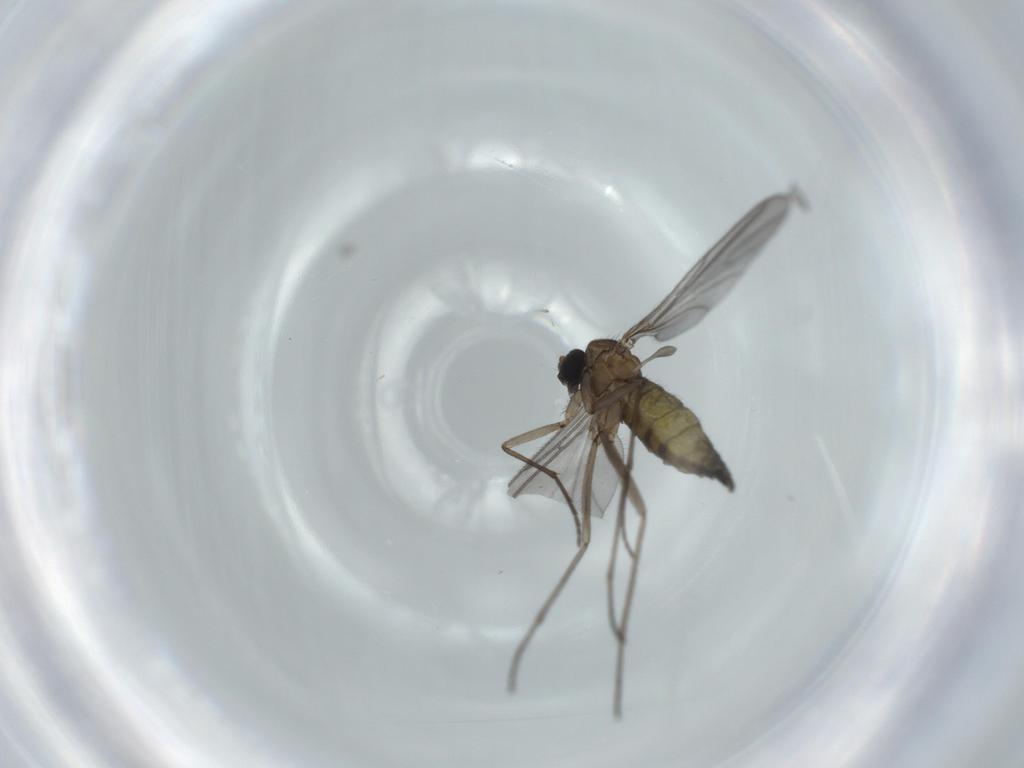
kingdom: Animalia
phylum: Arthropoda
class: Insecta
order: Diptera
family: Sciaridae
